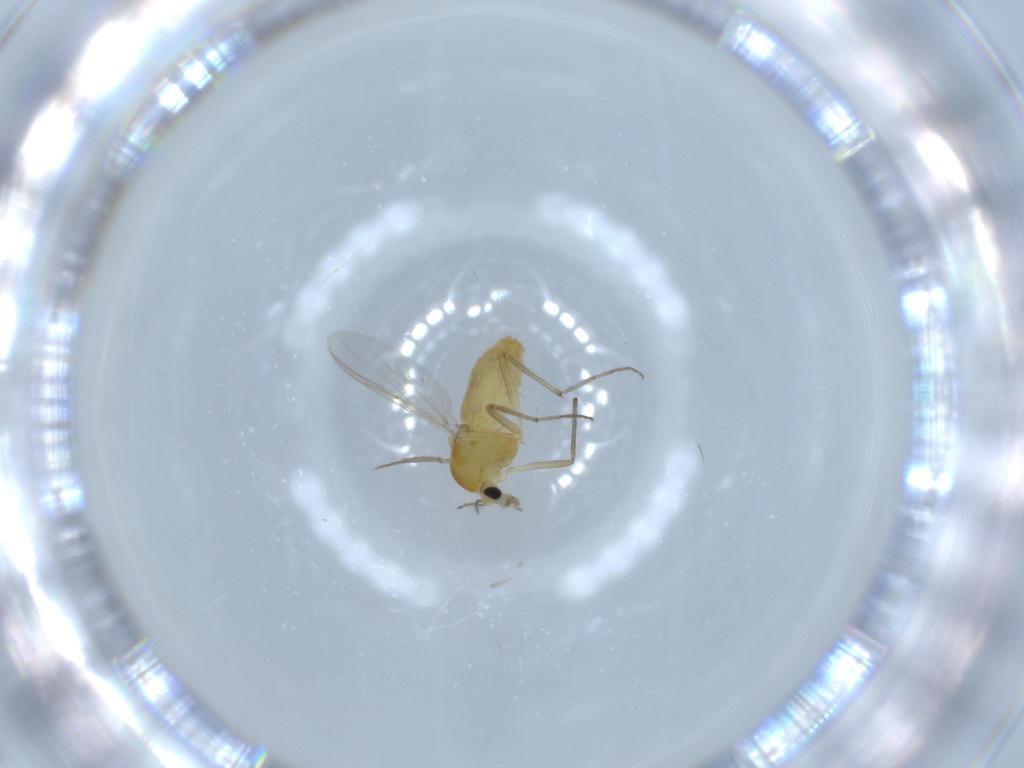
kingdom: Animalia
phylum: Arthropoda
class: Insecta
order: Diptera
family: Chironomidae
